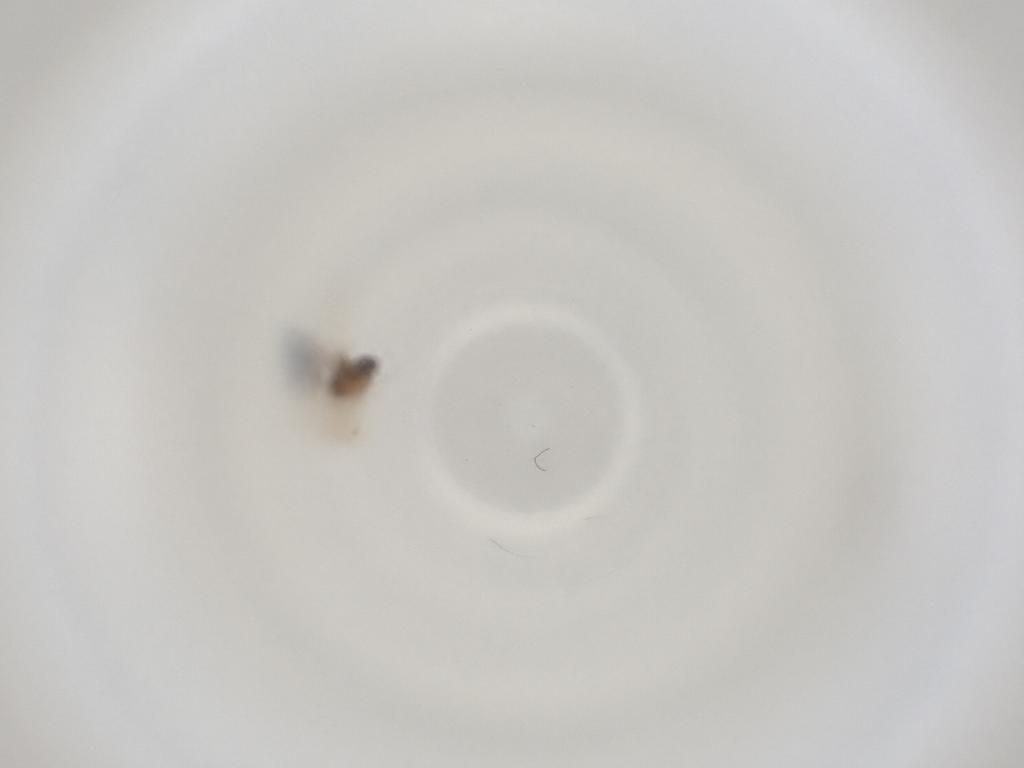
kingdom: Animalia
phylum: Arthropoda
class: Insecta
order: Diptera
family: Cecidomyiidae
